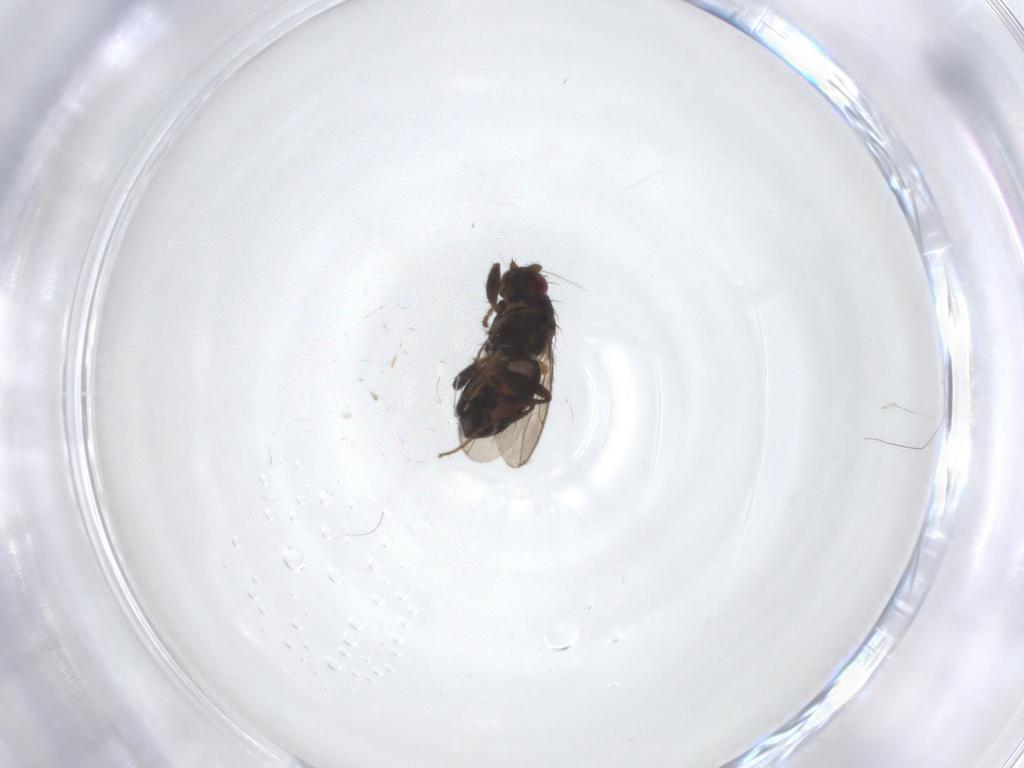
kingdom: Animalia
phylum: Arthropoda
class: Insecta
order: Diptera
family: Sphaeroceridae
